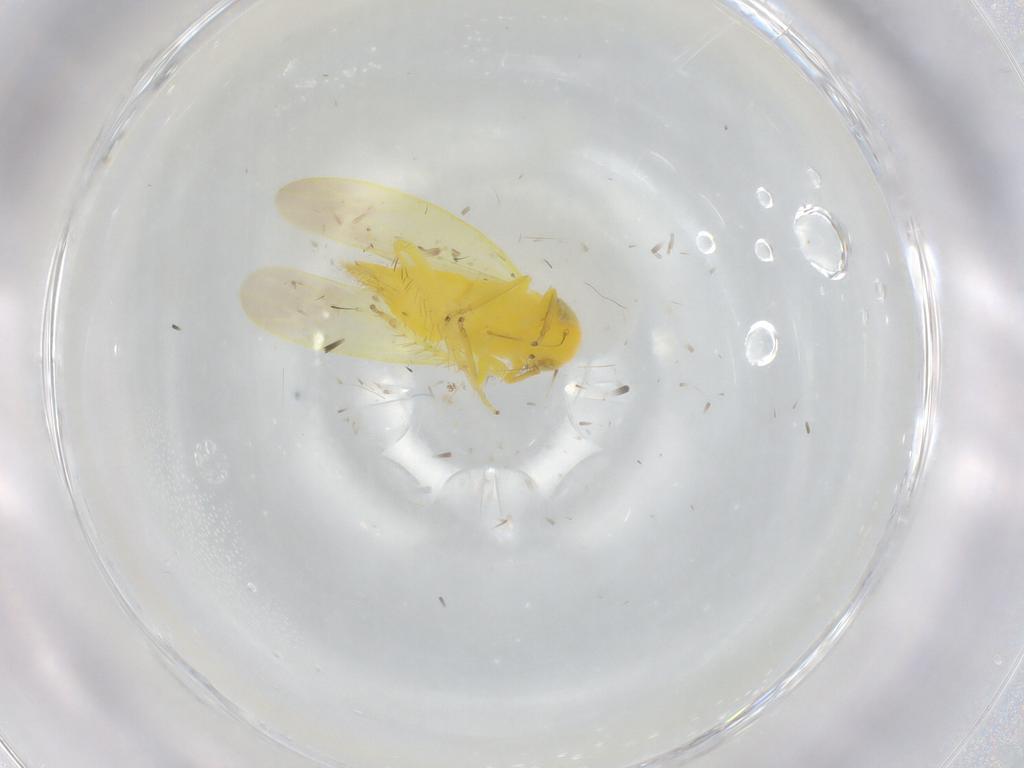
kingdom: Animalia
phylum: Arthropoda
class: Insecta
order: Hemiptera
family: Cicadellidae
